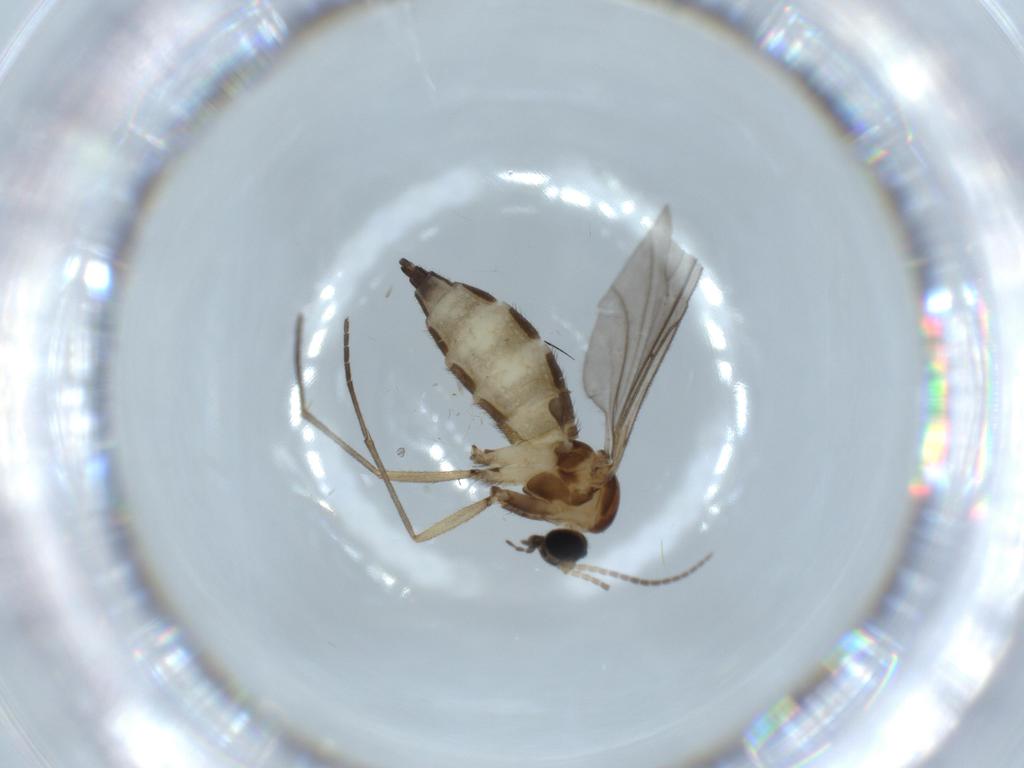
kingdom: Animalia
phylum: Arthropoda
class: Insecta
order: Diptera
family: Sciaridae
